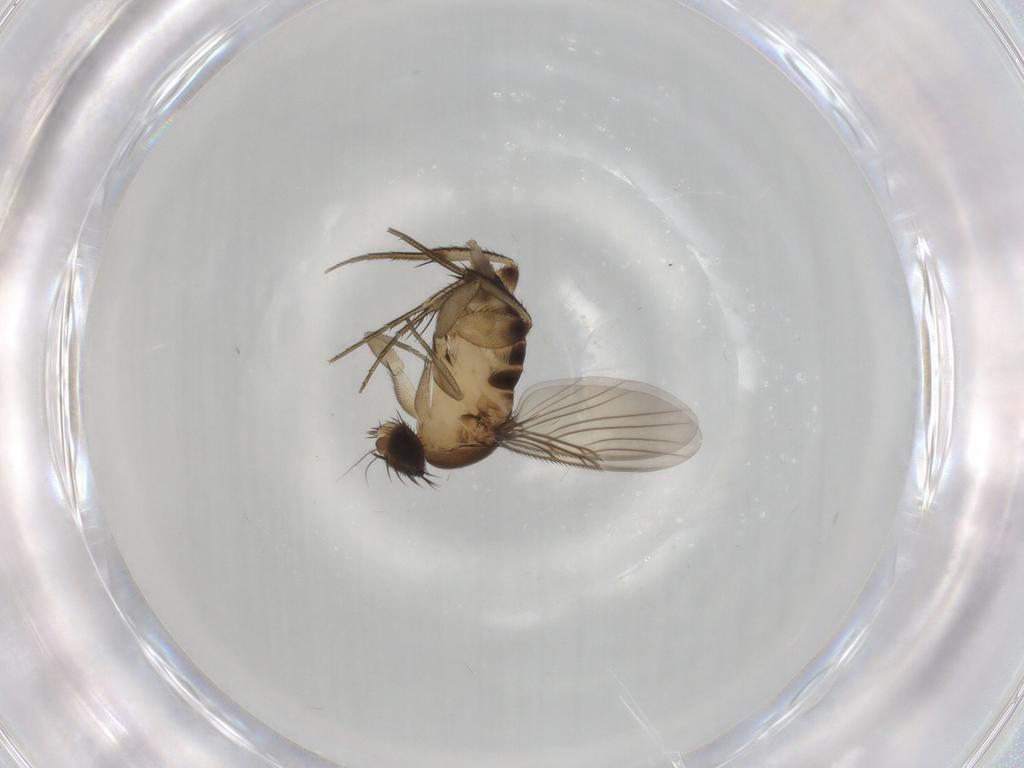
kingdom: Animalia
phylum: Arthropoda
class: Insecta
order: Diptera
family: Phoridae
